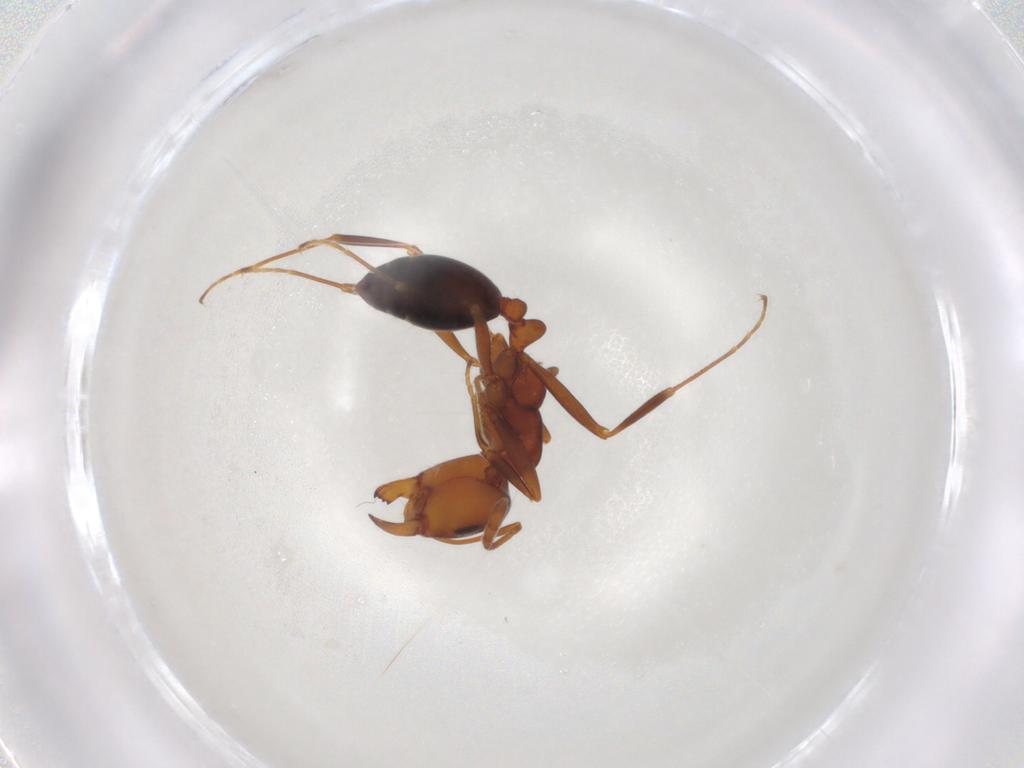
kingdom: Animalia
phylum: Arthropoda
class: Insecta
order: Hymenoptera
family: Formicidae
